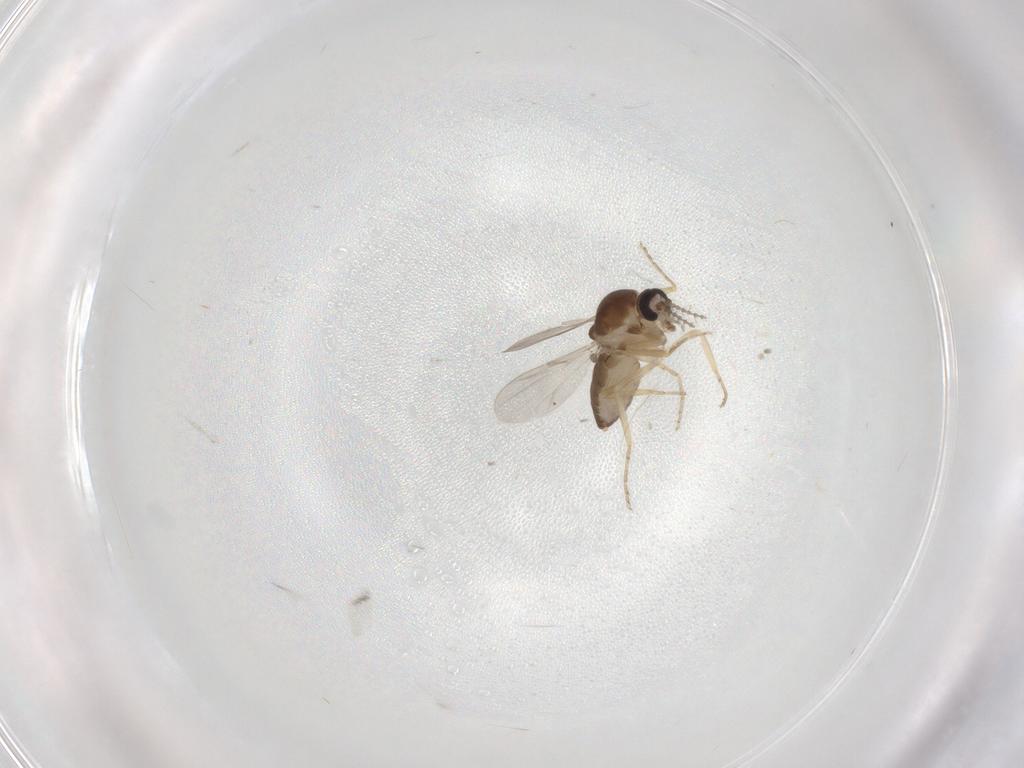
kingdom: Animalia
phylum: Arthropoda
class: Insecta
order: Diptera
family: Ceratopogonidae
